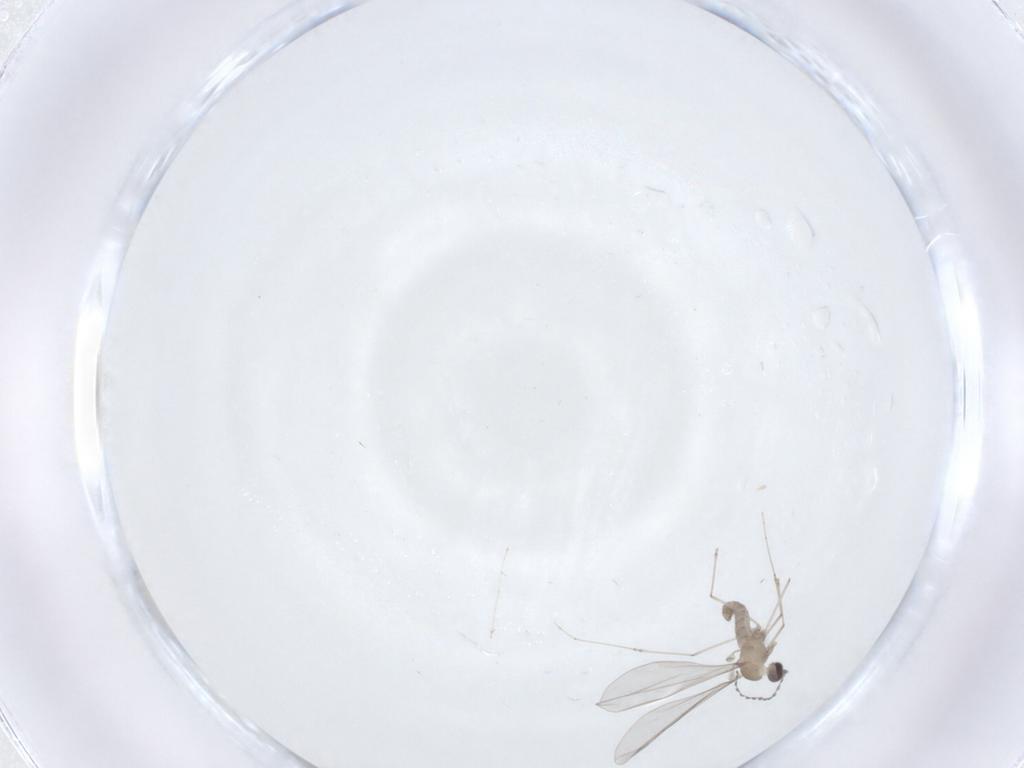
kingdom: Animalia
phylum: Arthropoda
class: Insecta
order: Diptera
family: Cecidomyiidae
